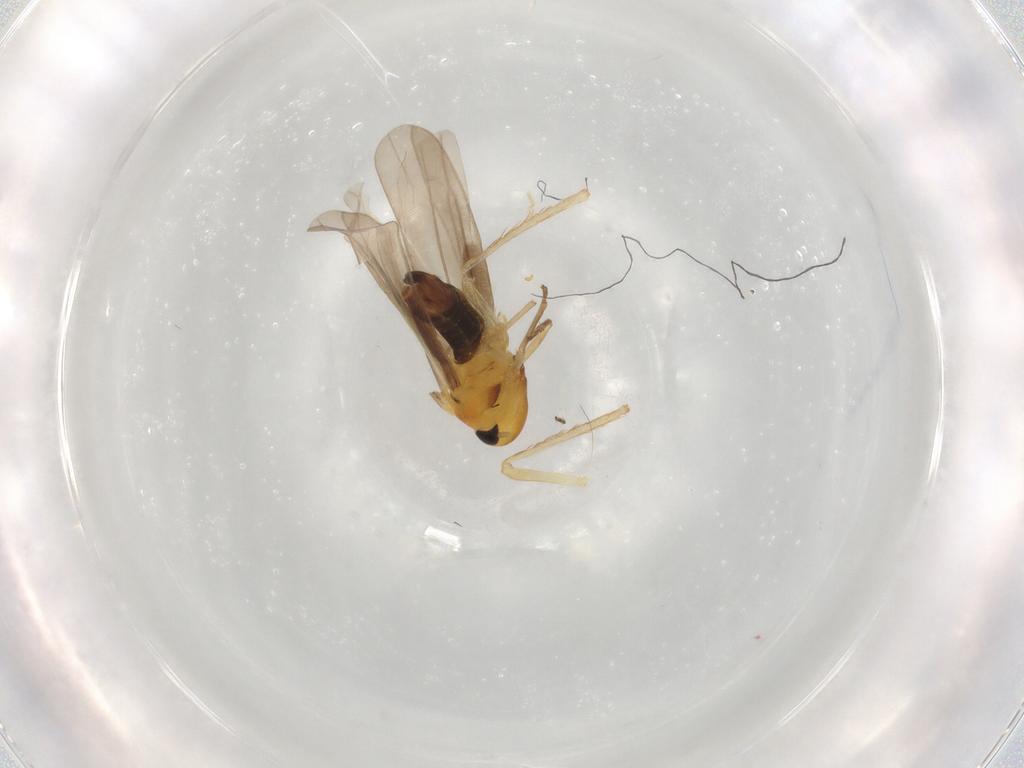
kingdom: Animalia
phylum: Arthropoda
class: Insecta
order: Hemiptera
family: Cicadellidae
